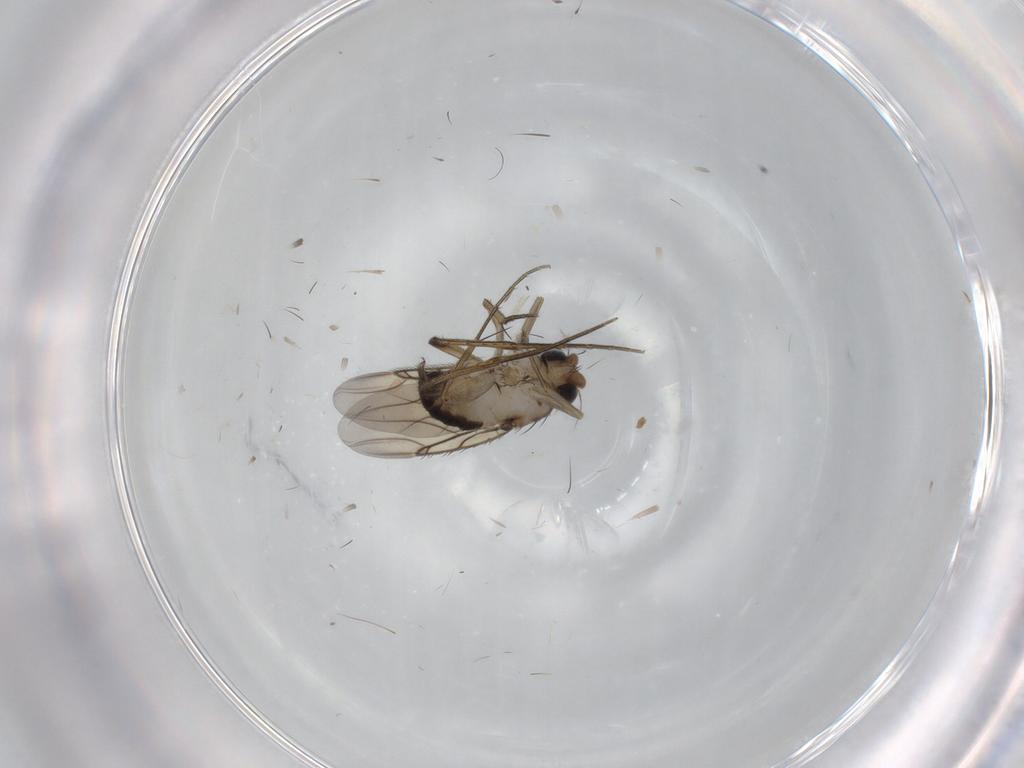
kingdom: Animalia
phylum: Arthropoda
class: Insecta
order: Diptera
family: Phoridae
